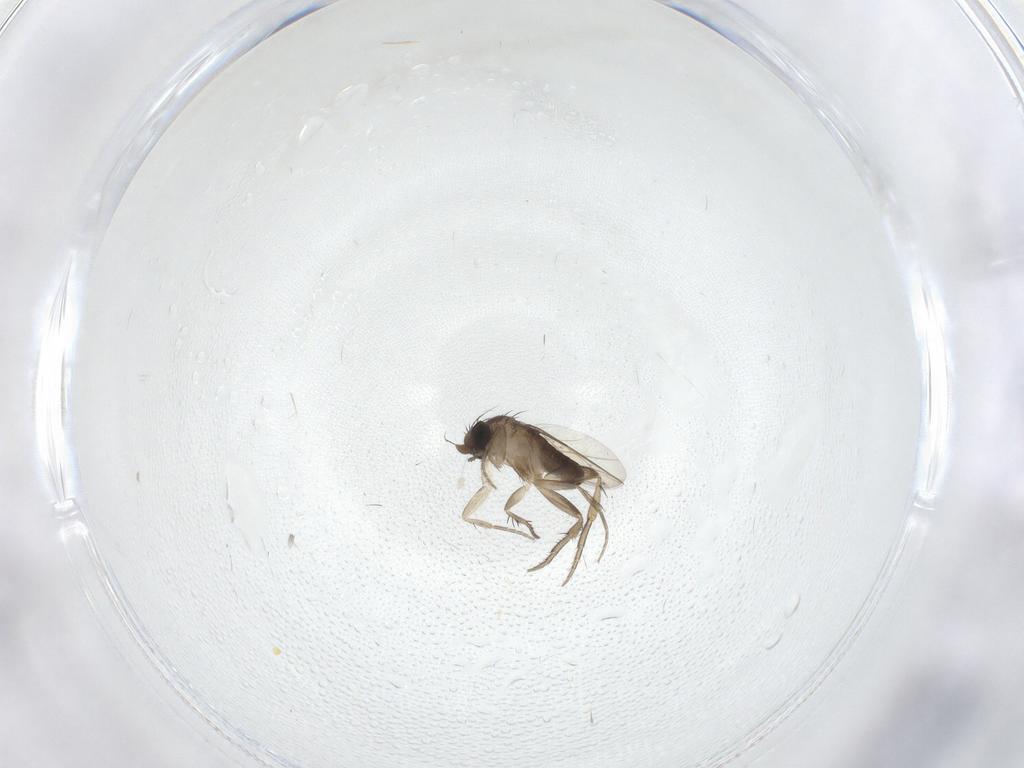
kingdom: Animalia
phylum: Arthropoda
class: Insecta
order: Diptera
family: Phoridae
